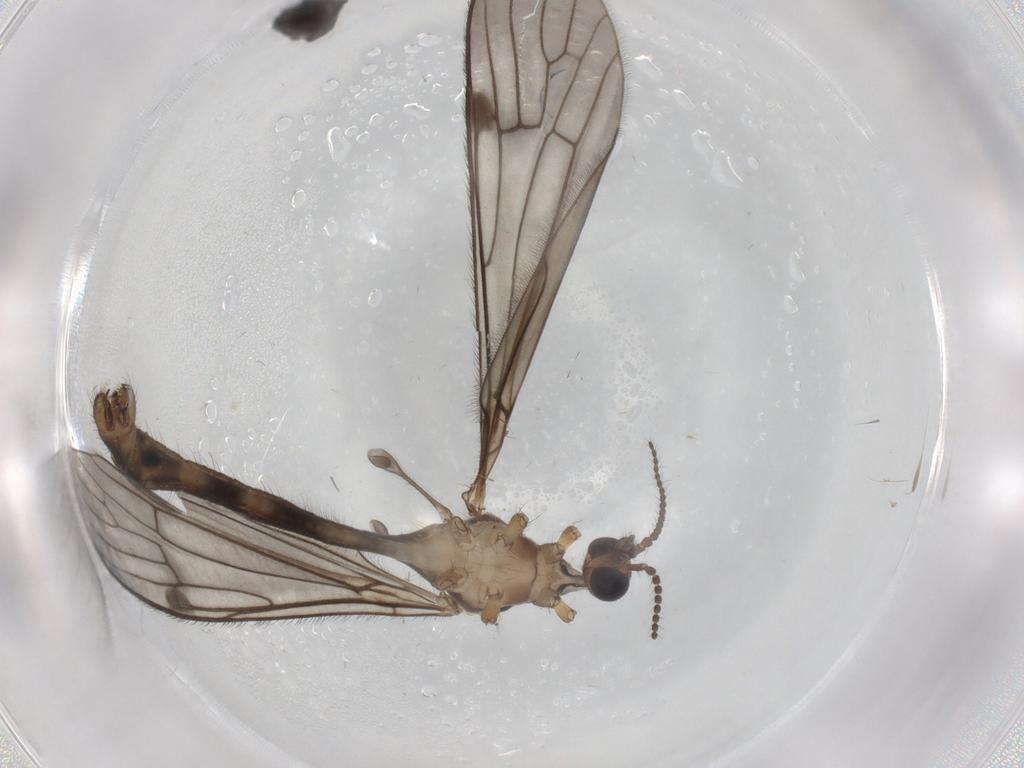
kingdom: Animalia
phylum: Arthropoda
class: Insecta
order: Diptera
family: Limoniidae
